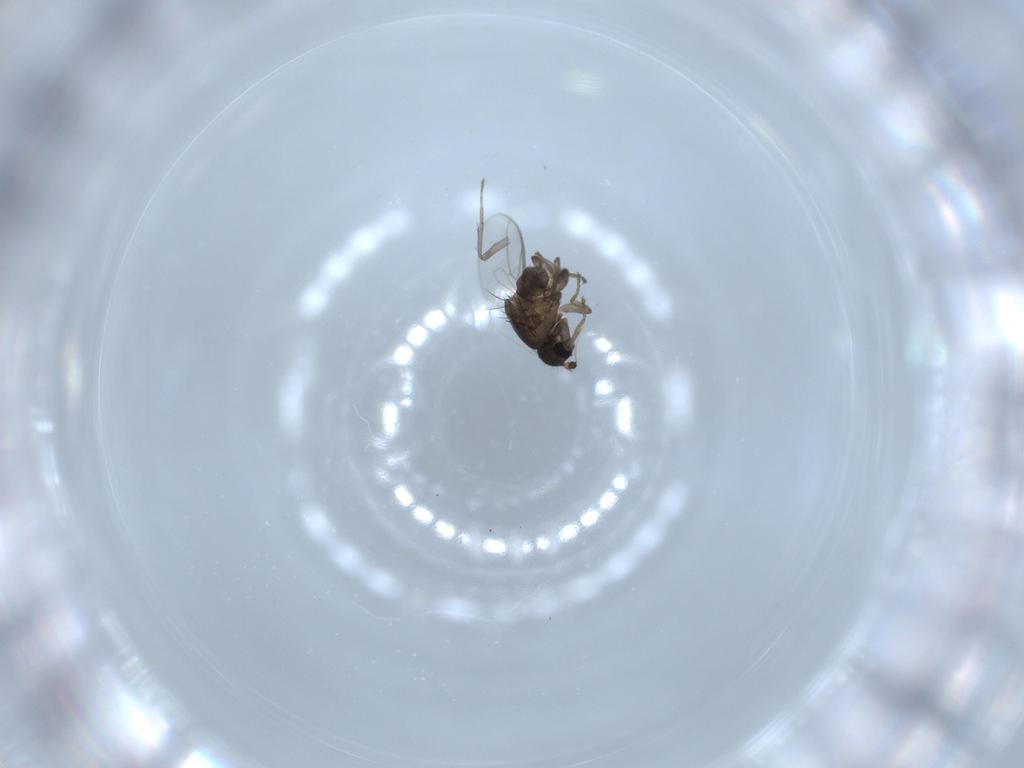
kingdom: Animalia
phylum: Arthropoda
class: Insecta
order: Diptera
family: Sphaeroceridae
